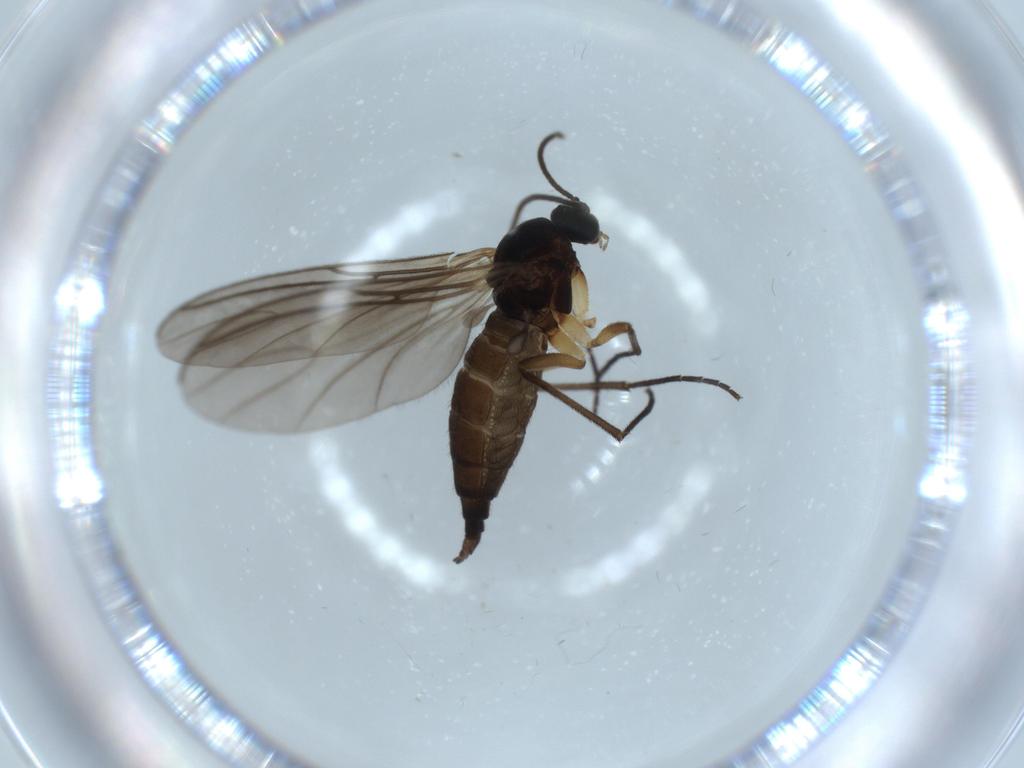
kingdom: Animalia
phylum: Arthropoda
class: Insecta
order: Diptera
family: Sciaridae
